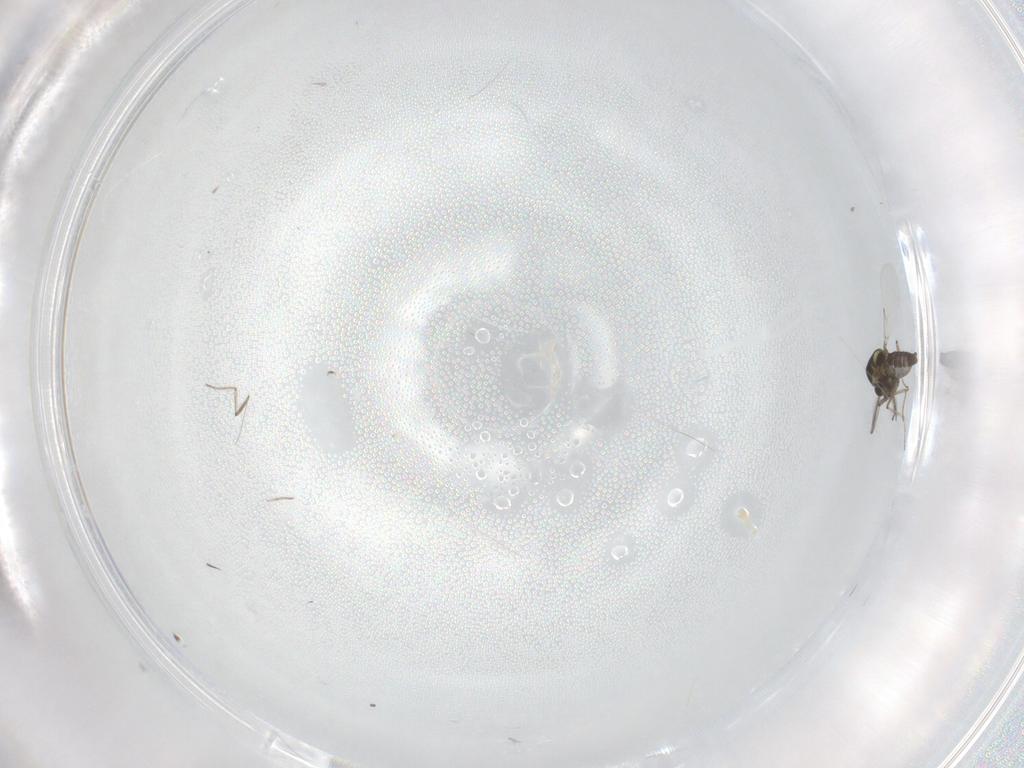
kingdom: Animalia
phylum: Arthropoda
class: Insecta
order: Diptera
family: Ceratopogonidae
